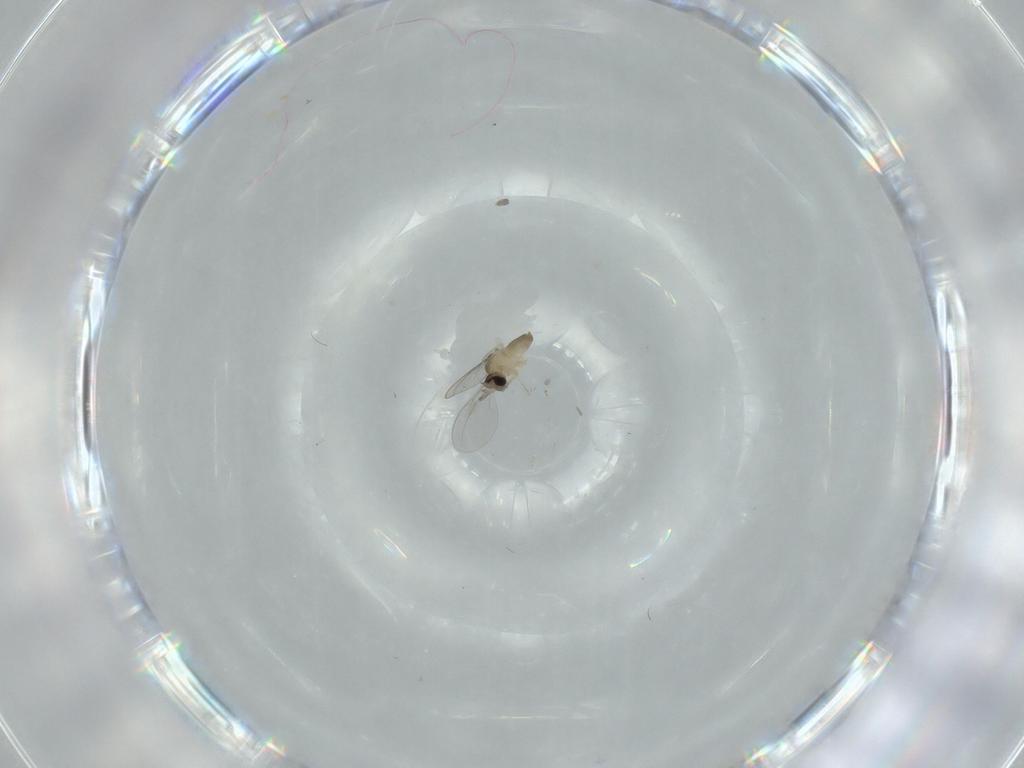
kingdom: Animalia
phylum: Arthropoda
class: Insecta
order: Diptera
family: Cecidomyiidae
